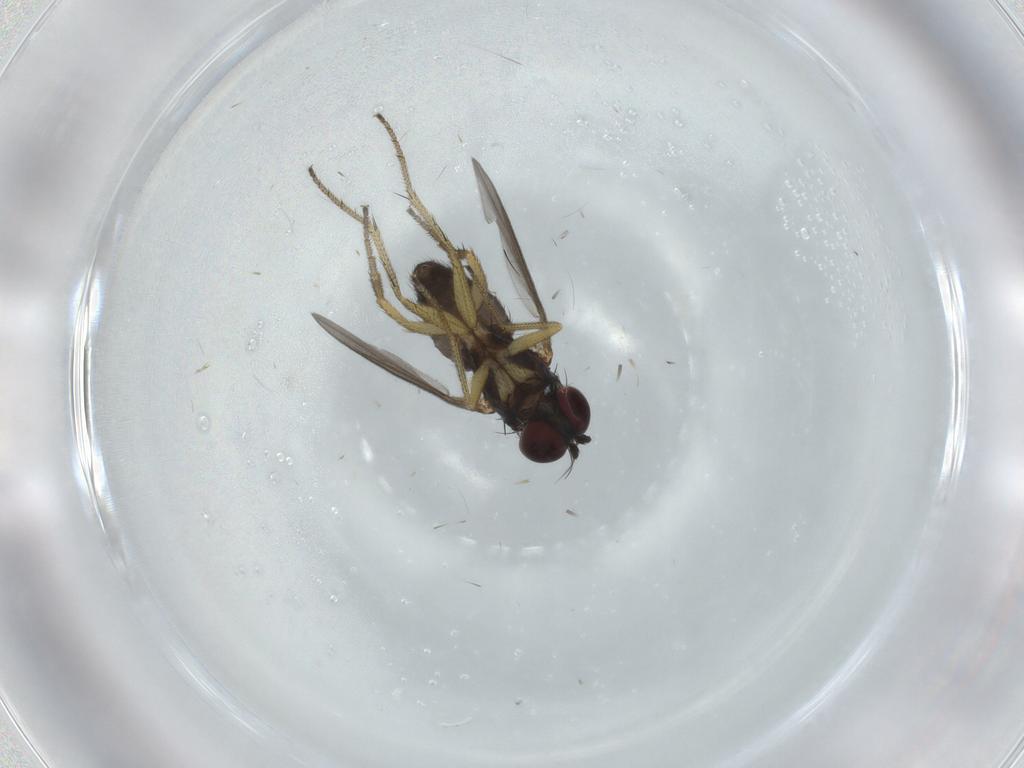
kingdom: Animalia
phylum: Arthropoda
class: Insecta
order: Diptera
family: Dolichopodidae
